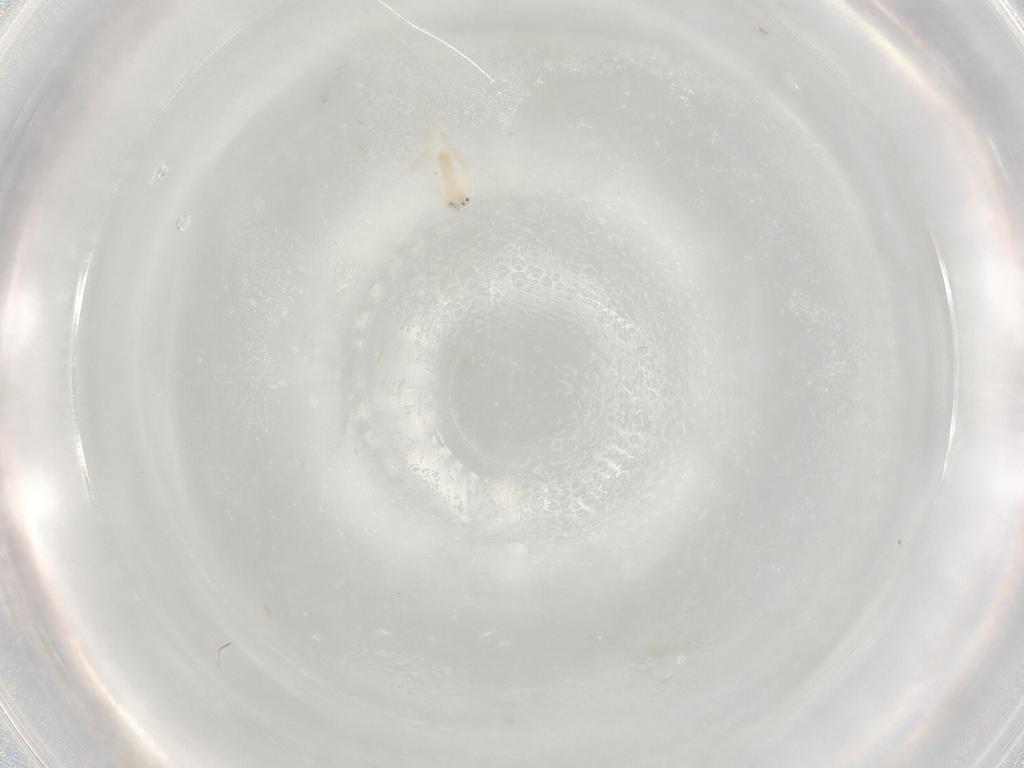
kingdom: Animalia
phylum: Arthropoda
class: Insecta
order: Hemiptera
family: Aleyrodidae
